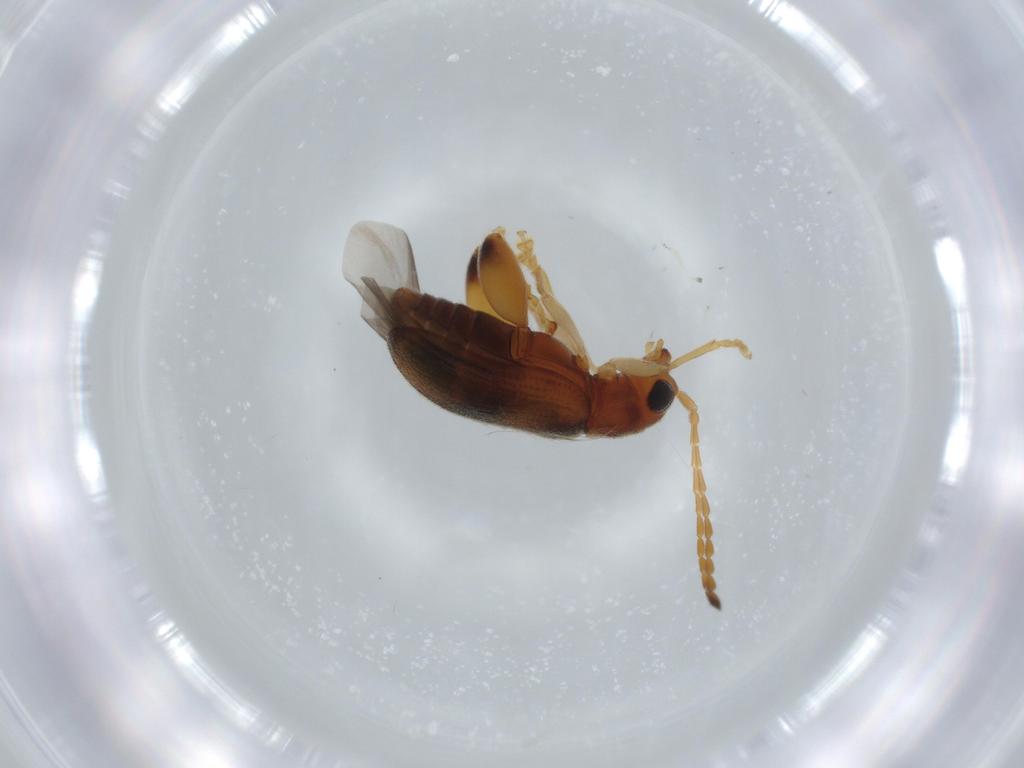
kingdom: Animalia
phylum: Arthropoda
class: Insecta
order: Coleoptera
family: Chrysomelidae
